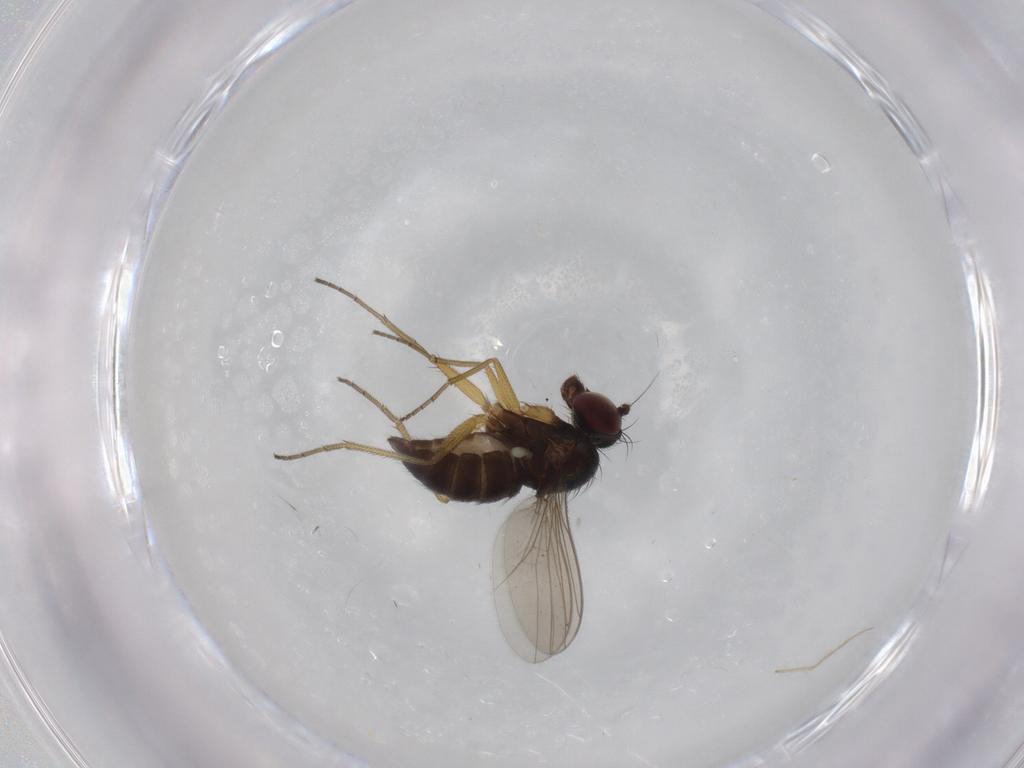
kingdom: Animalia
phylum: Arthropoda
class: Insecta
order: Diptera
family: Dolichopodidae
